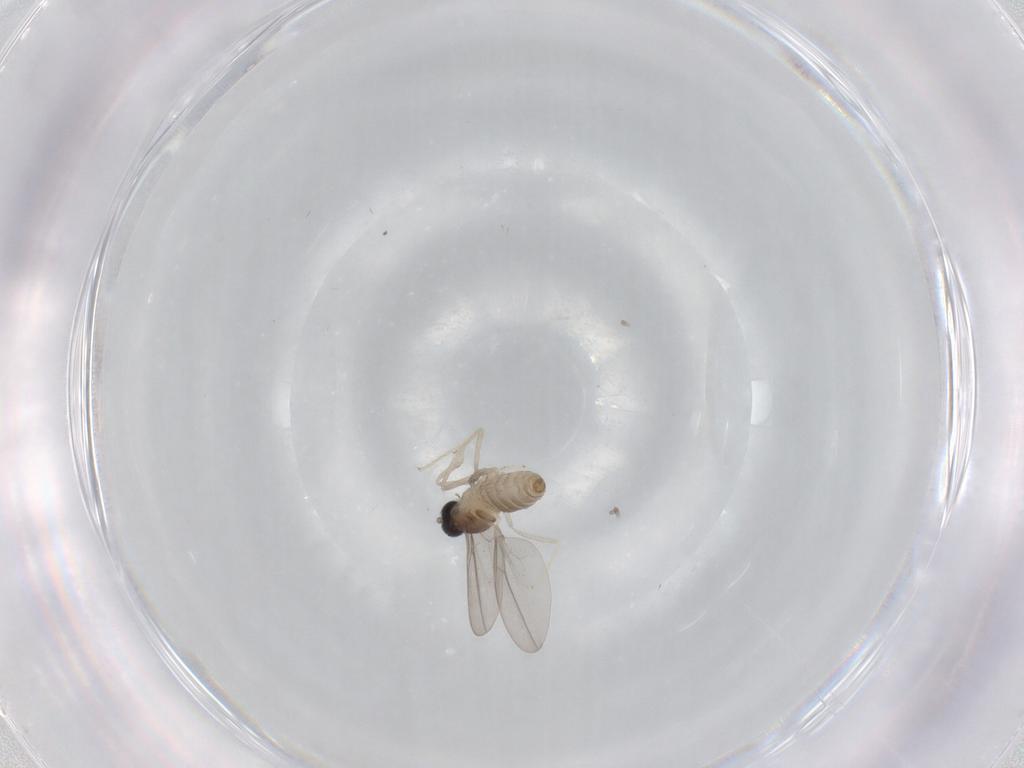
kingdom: Animalia
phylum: Arthropoda
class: Insecta
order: Diptera
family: Cecidomyiidae
